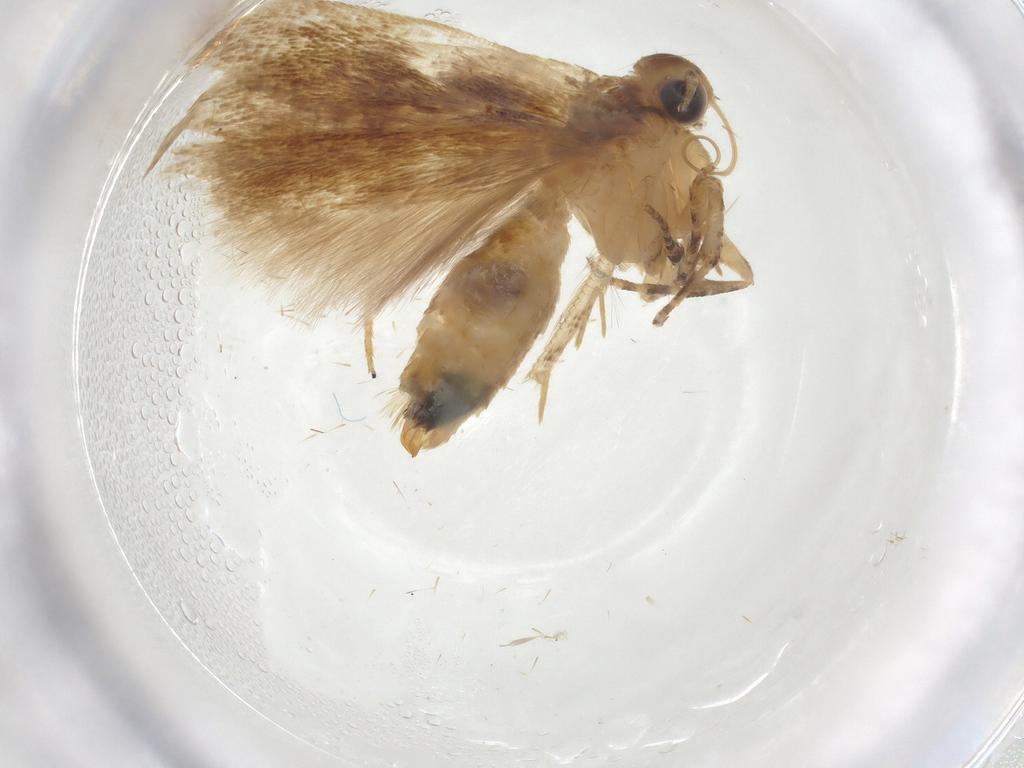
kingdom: Animalia
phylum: Arthropoda
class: Insecta
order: Lepidoptera
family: Gelechiidae
